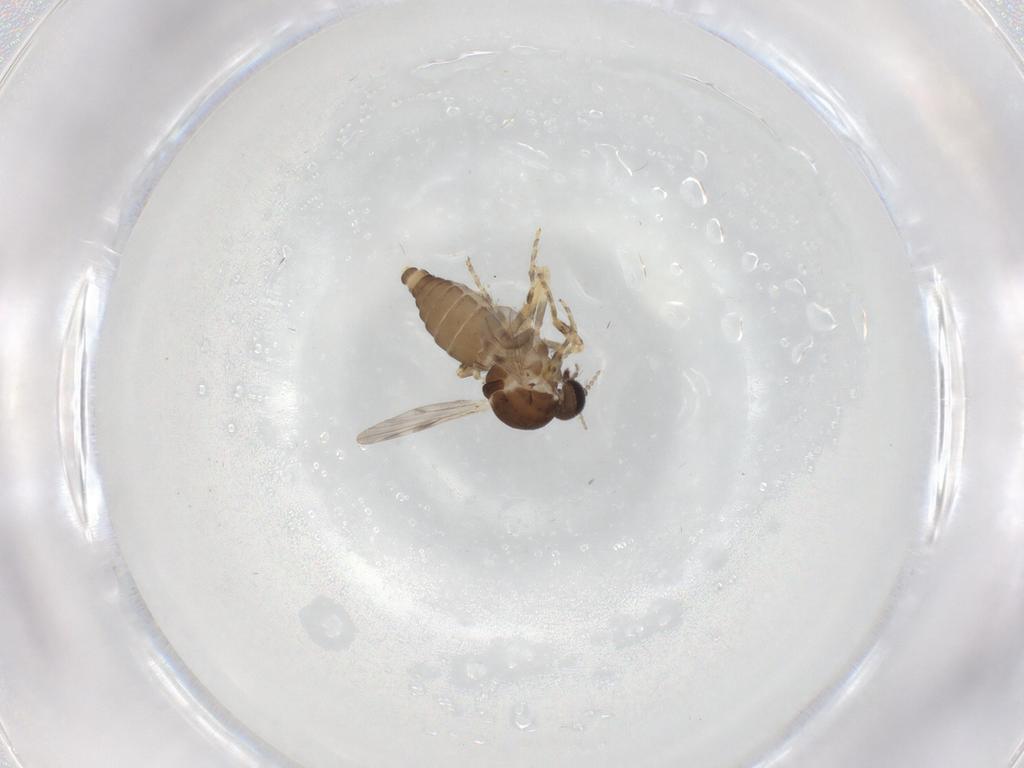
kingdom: Animalia
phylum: Arthropoda
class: Insecta
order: Diptera
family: Ceratopogonidae
